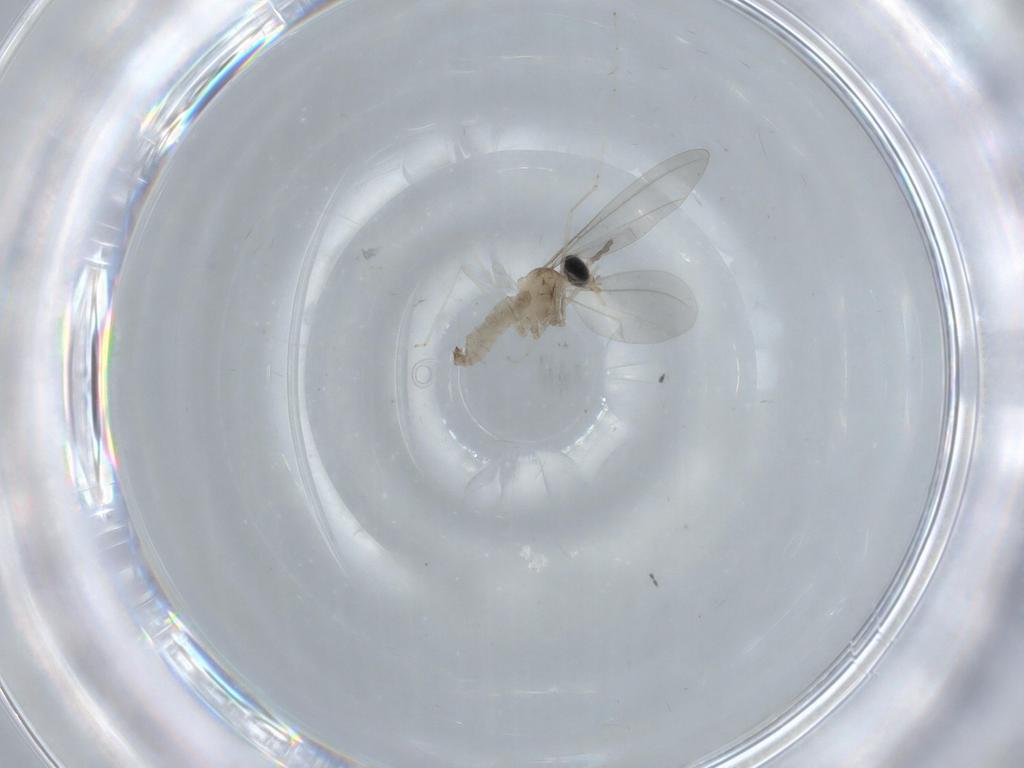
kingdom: Animalia
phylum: Arthropoda
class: Insecta
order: Diptera
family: Cecidomyiidae
